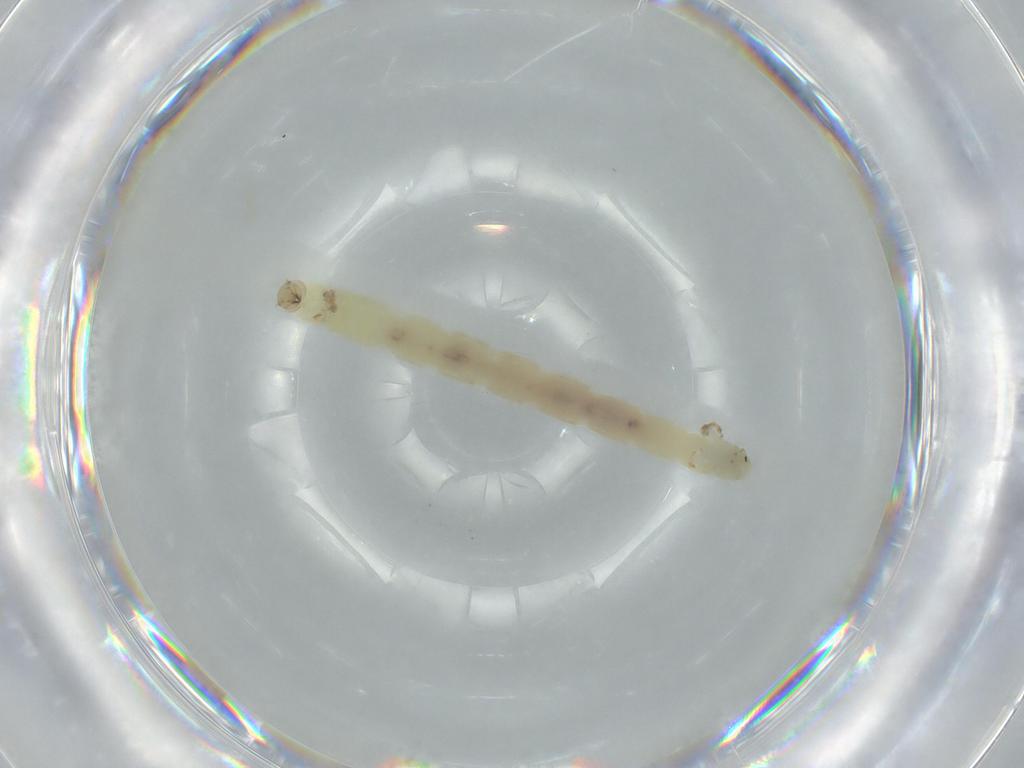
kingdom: Animalia
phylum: Arthropoda
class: Insecta
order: Diptera
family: Chironomidae
